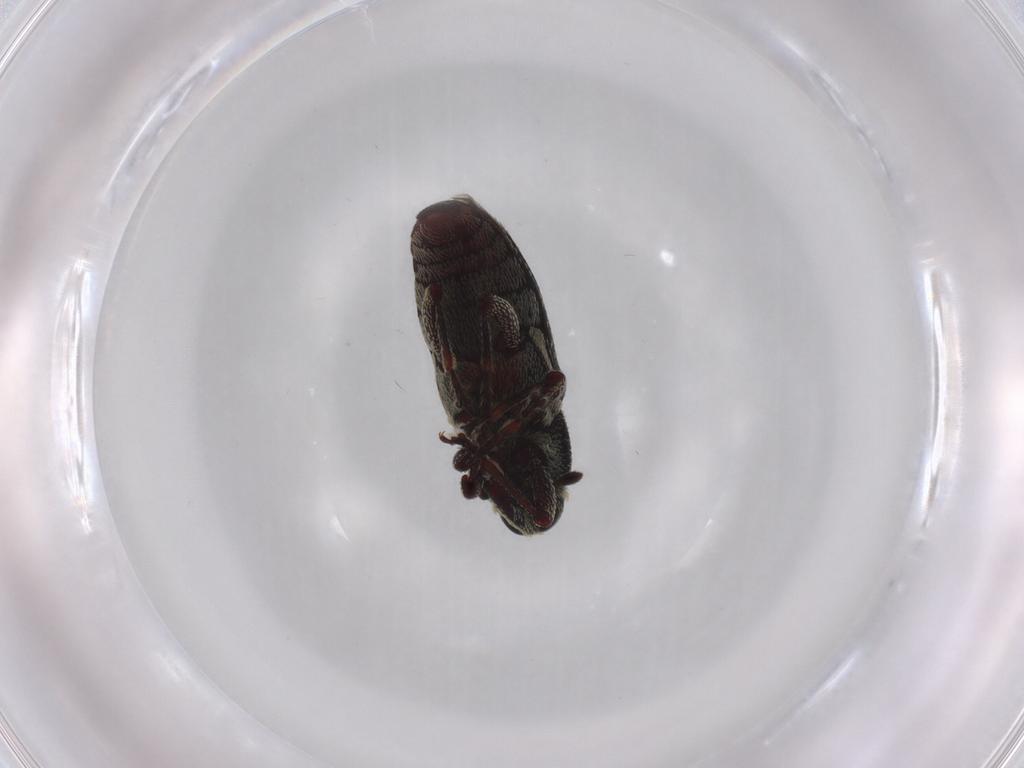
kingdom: Animalia
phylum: Arthropoda
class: Insecta
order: Coleoptera
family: Curculionidae
